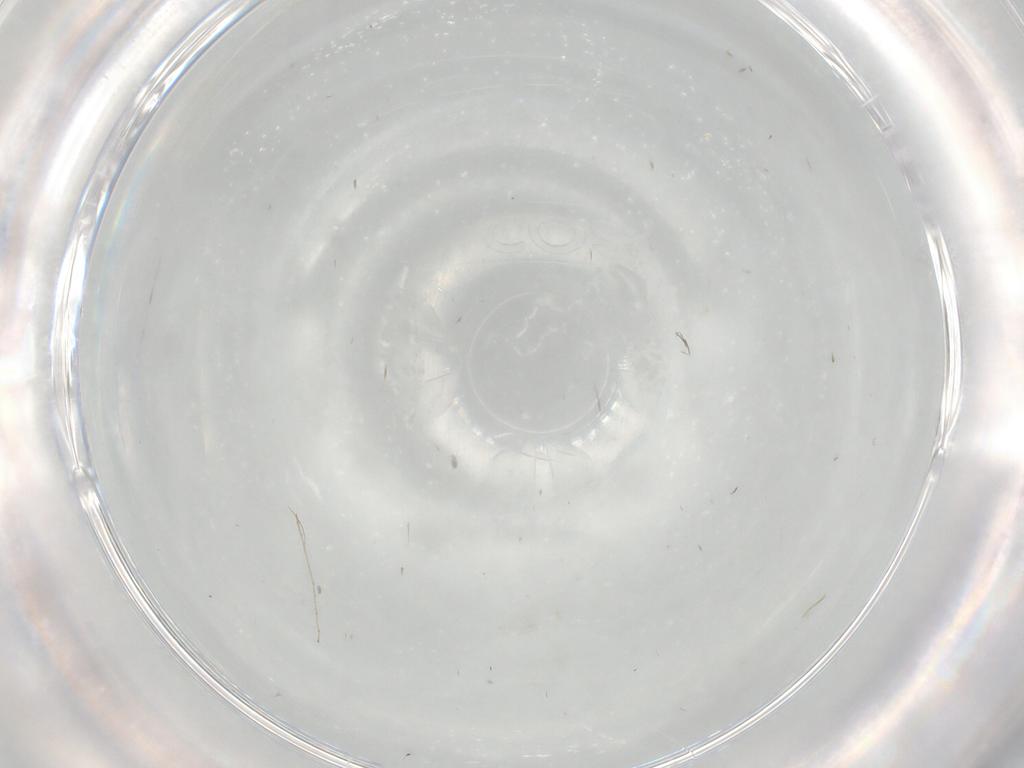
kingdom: Animalia
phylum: Arthropoda
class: Insecta
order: Diptera
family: Cecidomyiidae
